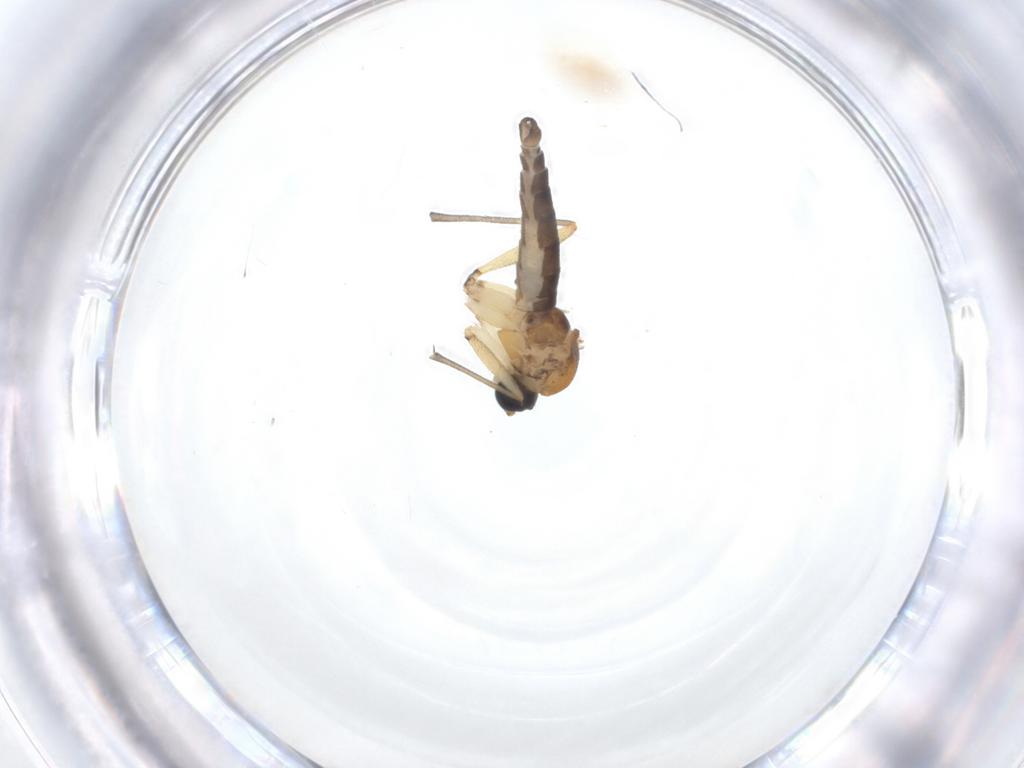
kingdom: Animalia
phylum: Arthropoda
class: Insecta
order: Diptera
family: Sciaridae
